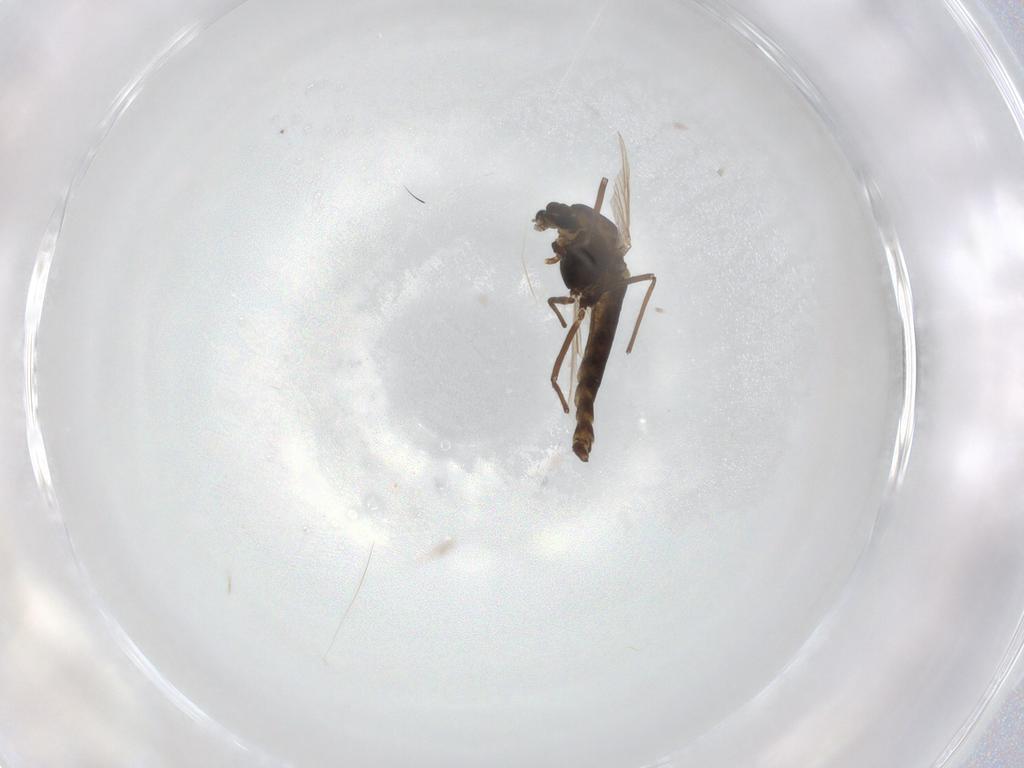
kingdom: Animalia
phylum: Arthropoda
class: Insecta
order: Diptera
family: Chironomidae
